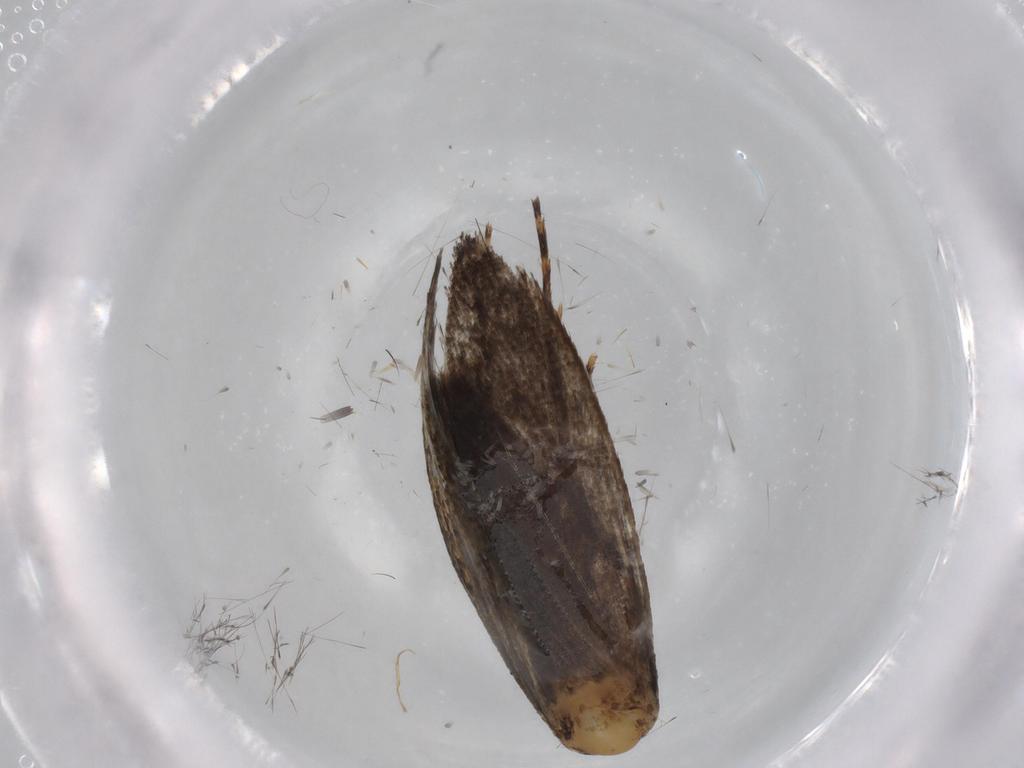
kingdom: Animalia
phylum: Arthropoda
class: Insecta
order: Lepidoptera
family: Tineidae
